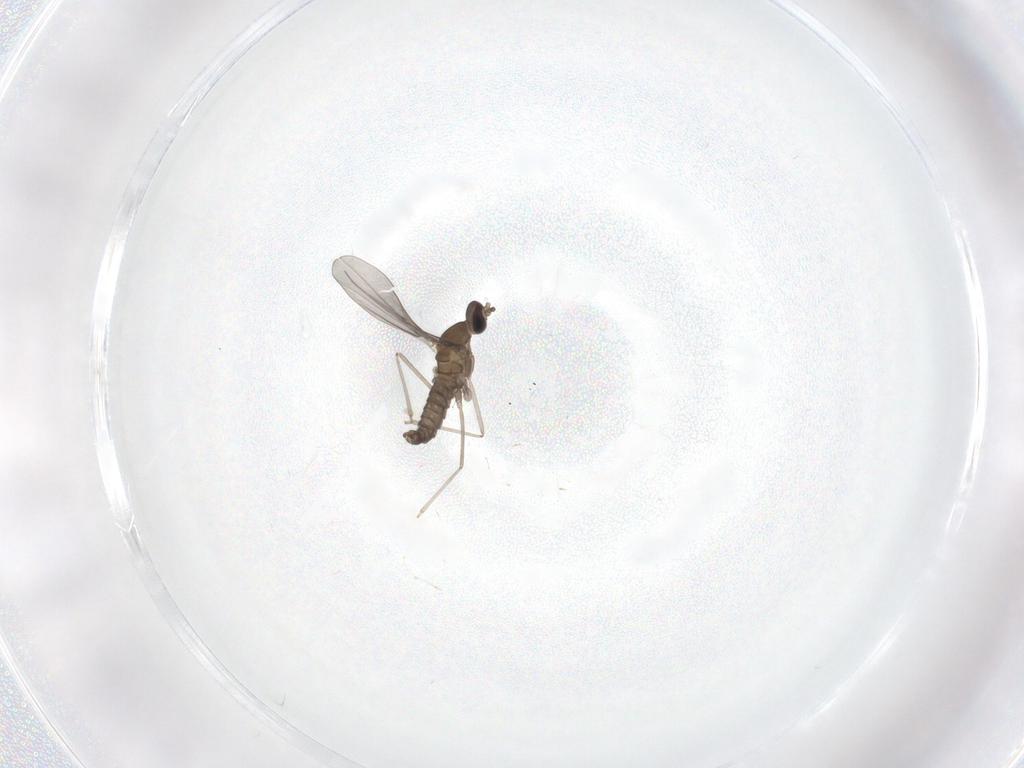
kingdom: Animalia
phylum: Arthropoda
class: Insecta
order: Diptera
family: Cecidomyiidae
